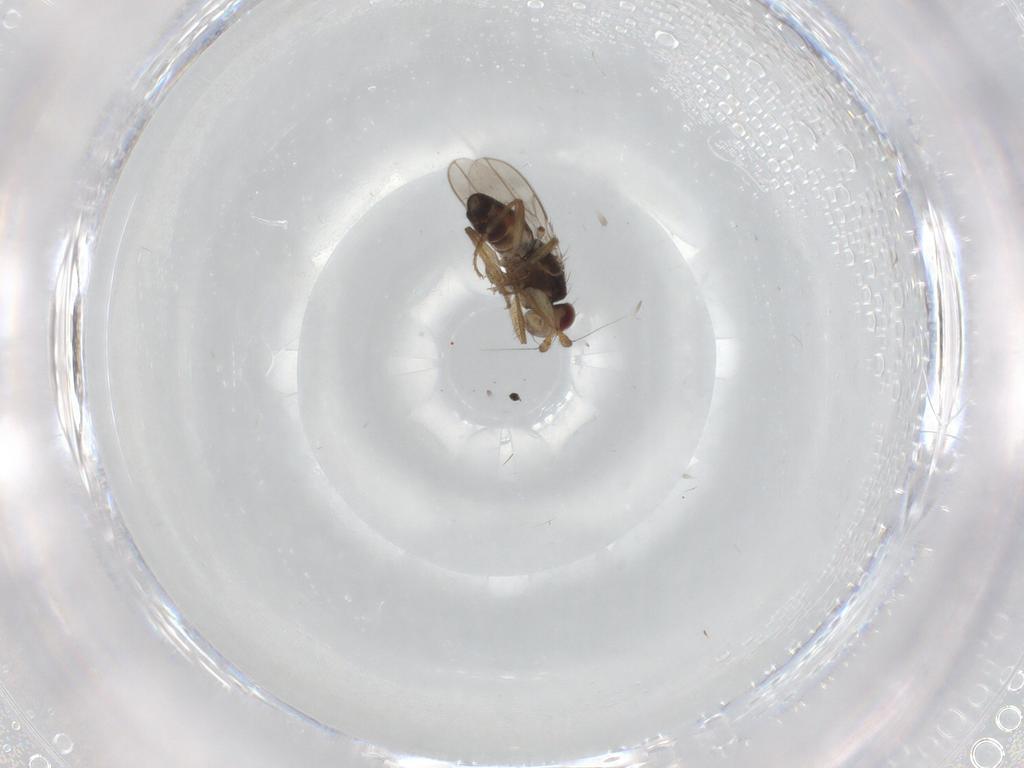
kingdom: Animalia
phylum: Arthropoda
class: Insecta
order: Diptera
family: Sphaeroceridae
